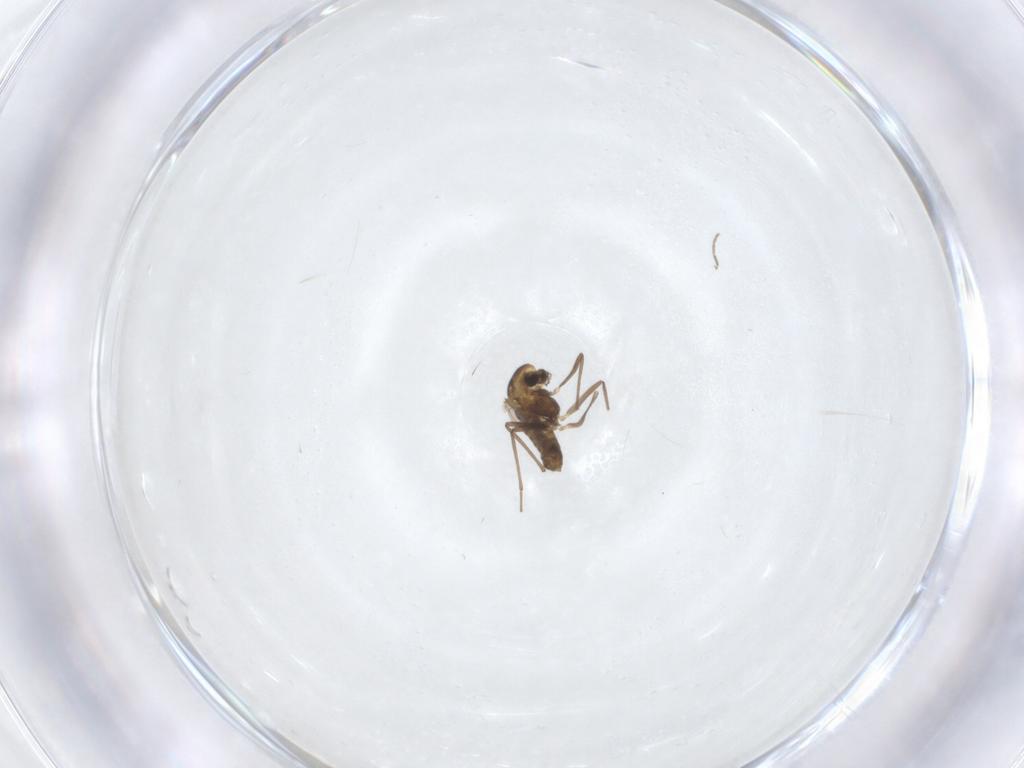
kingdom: Animalia
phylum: Arthropoda
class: Insecta
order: Diptera
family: Chironomidae
